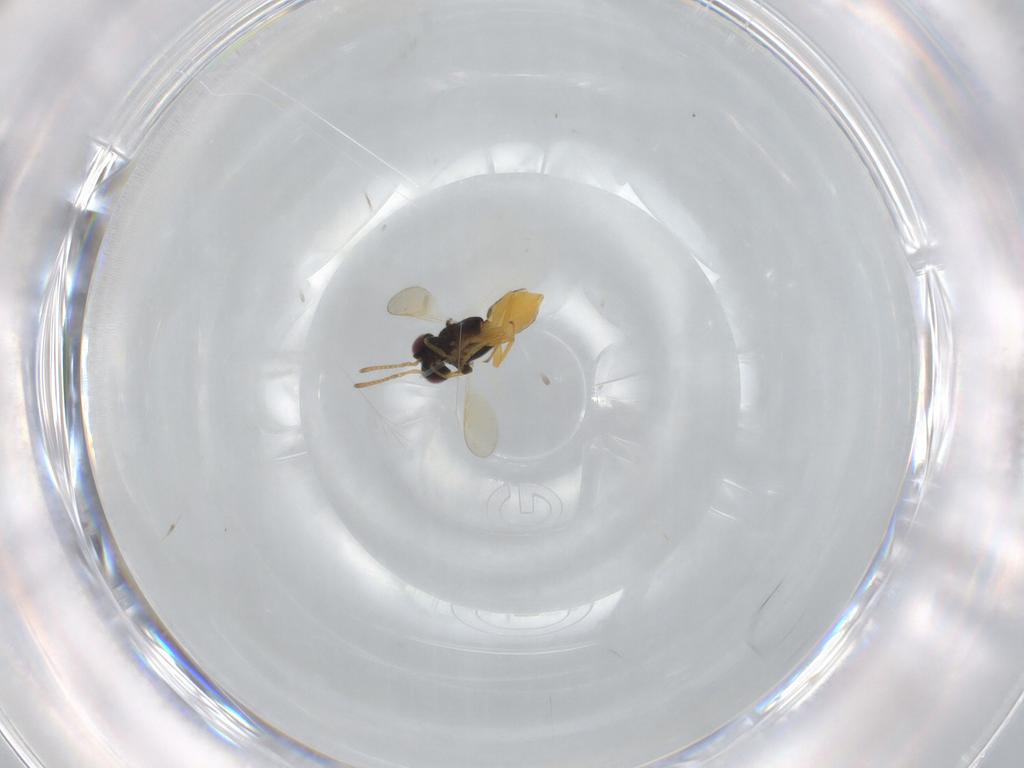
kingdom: Animalia
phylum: Arthropoda
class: Insecta
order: Hymenoptera
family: Encyrtidae
